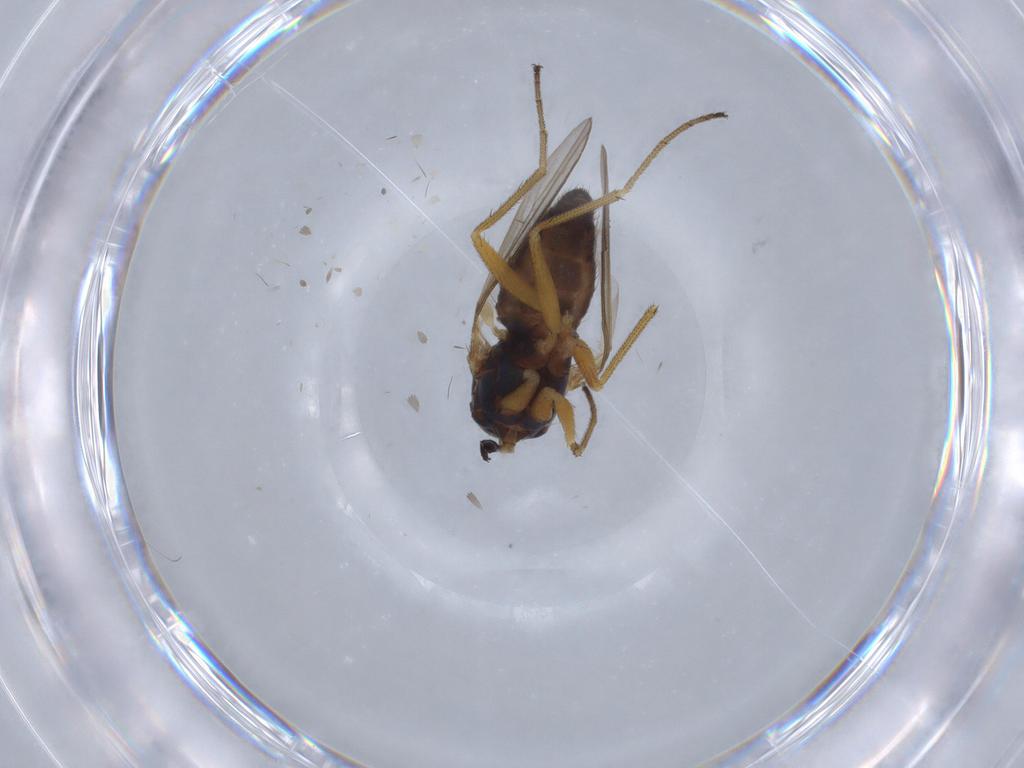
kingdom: Animalia
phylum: Arthropoda
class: Insecta
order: Diptera
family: Dolichopodidae
